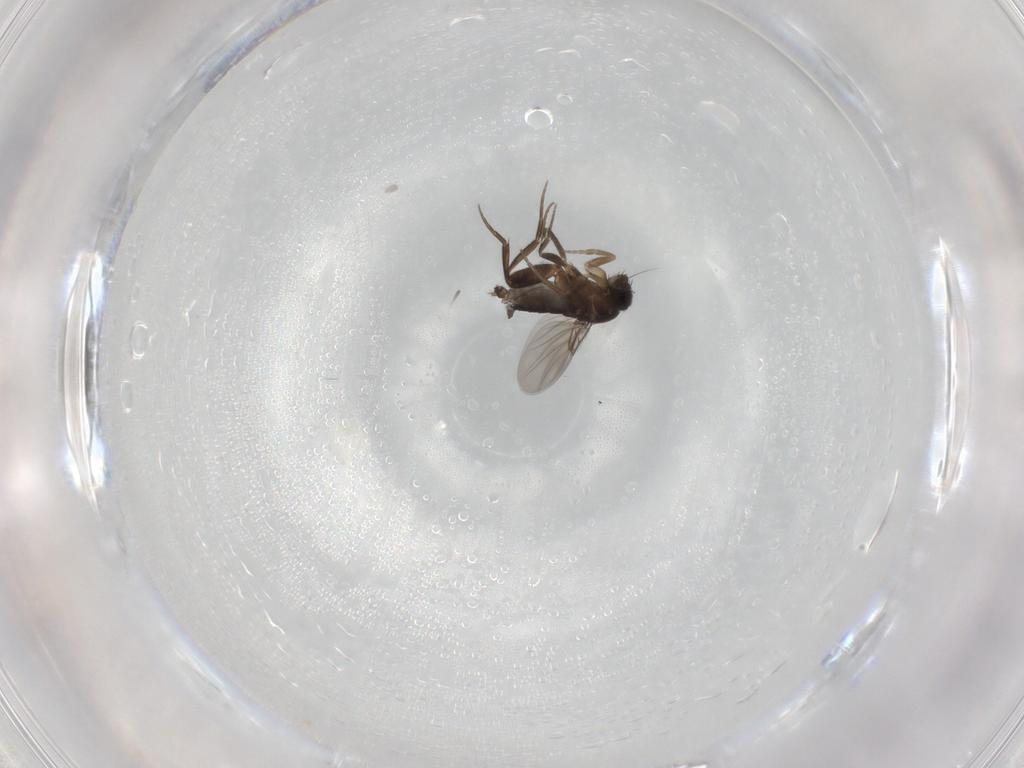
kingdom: Animalia
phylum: Arthropoda
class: Insecta
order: Diptera
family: Phoridae
